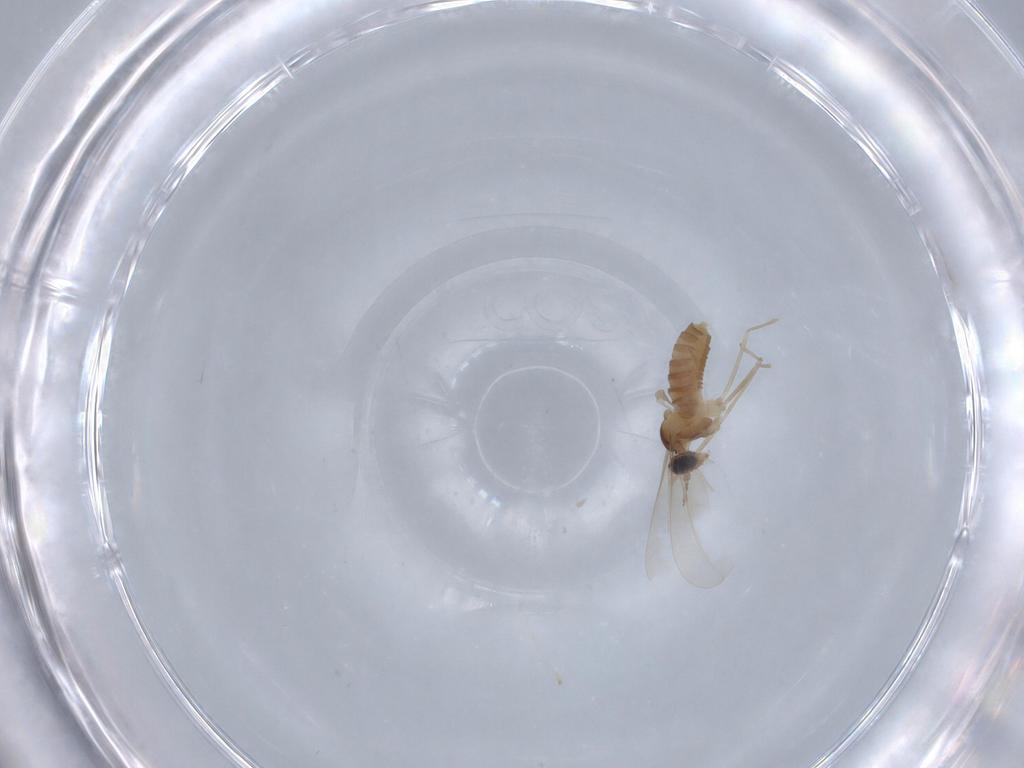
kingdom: Animalia
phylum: Arthropoda
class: Insecta
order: Diptera
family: Cecidomyiidae
